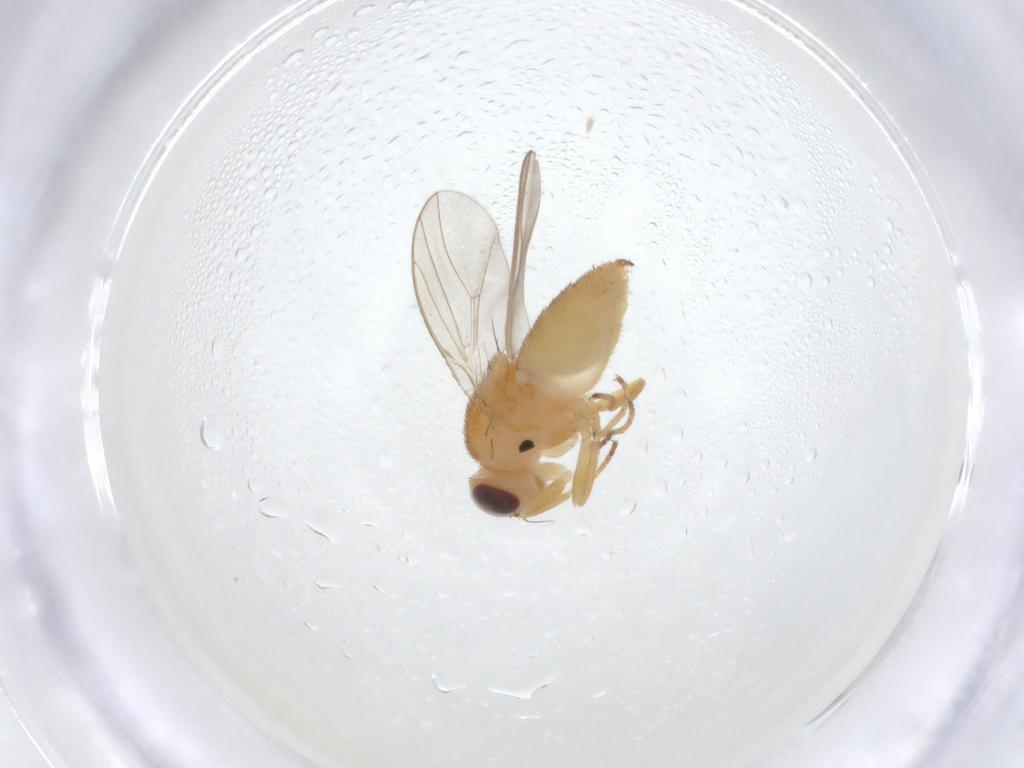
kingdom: Animalia
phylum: Arthropoda
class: Insecta
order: Diptera
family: Chloropidae
